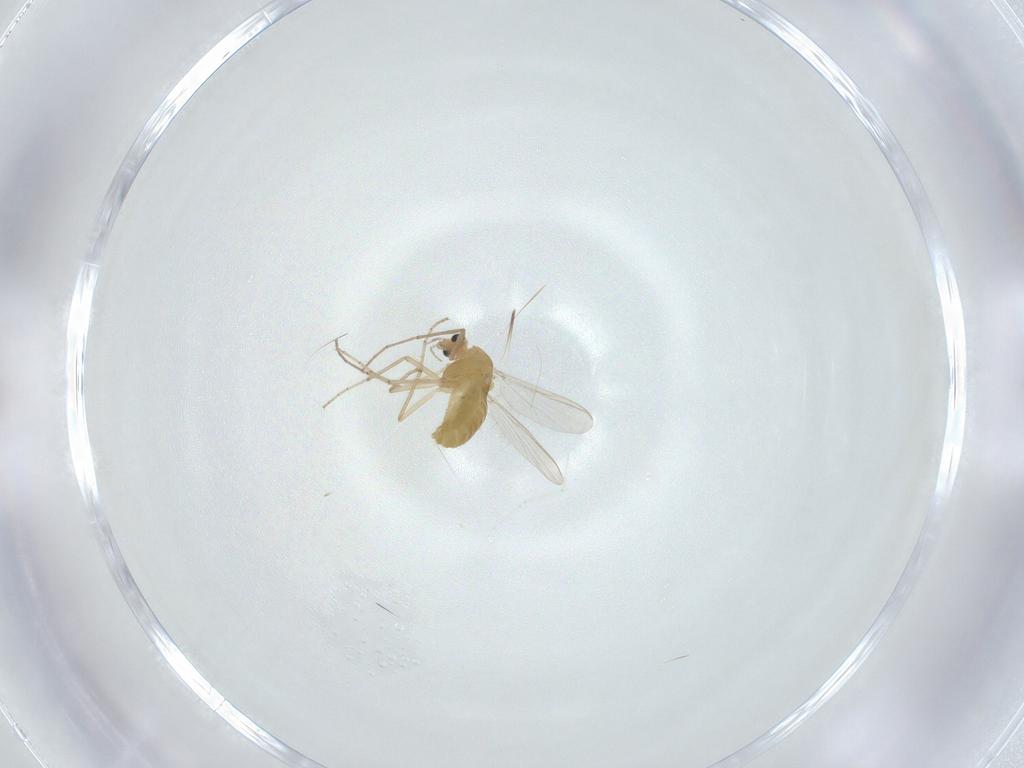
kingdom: Animalia
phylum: Arthropoda
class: Insecta
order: Diptera
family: Chironomidae
